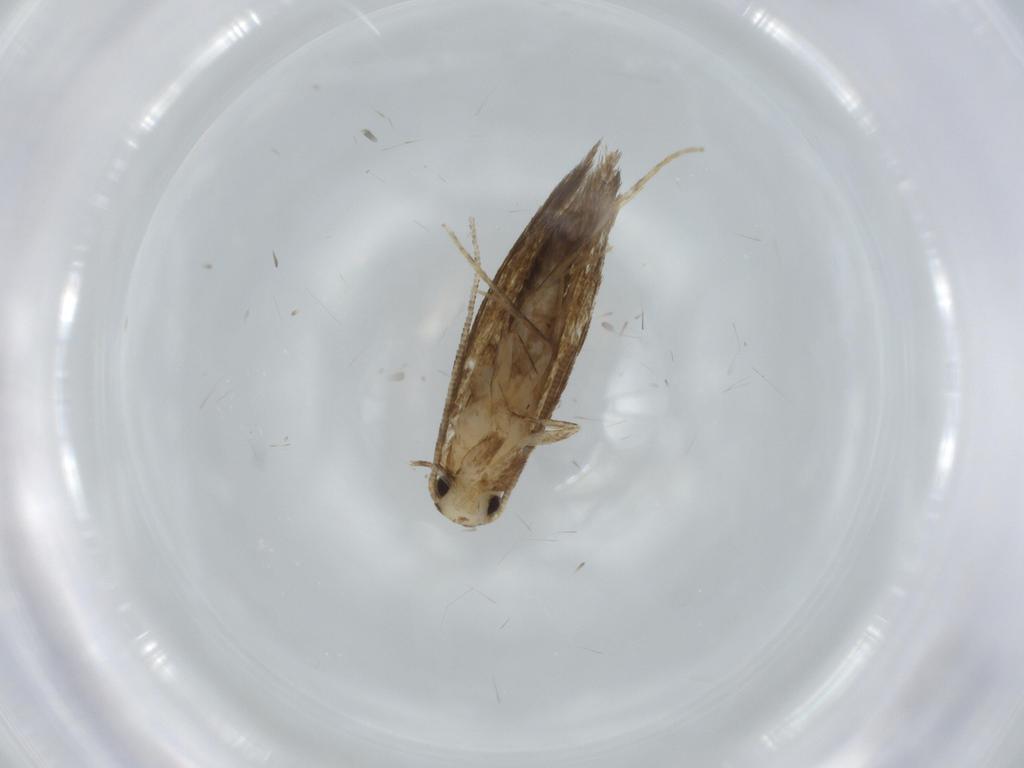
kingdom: Animalia
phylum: Arthropoda
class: Insecta
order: Lepidoptera
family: Tineidae
